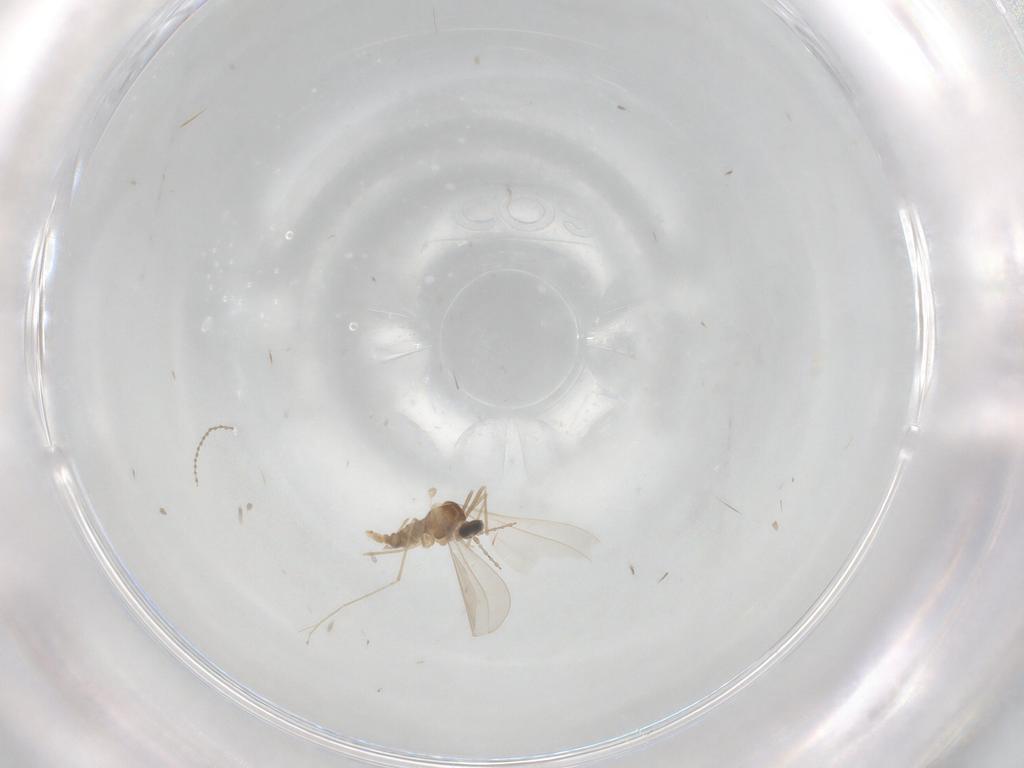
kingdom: Animalia
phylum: Arthropoda
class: Insecta
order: Diptera
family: Cecidomyiidae
